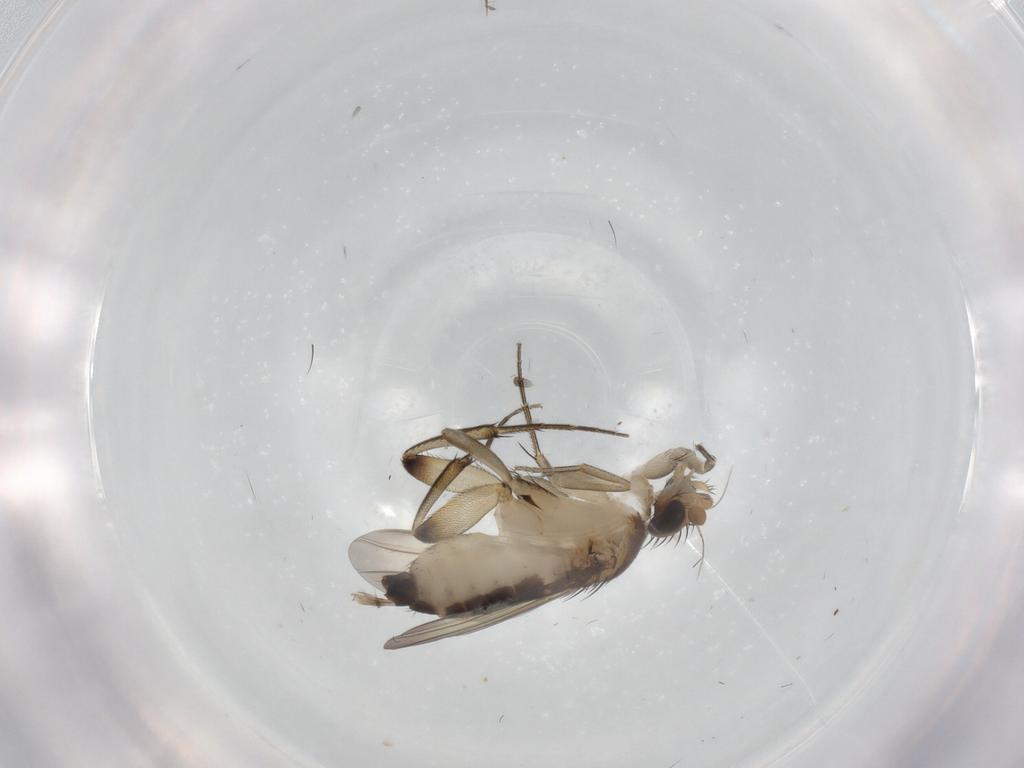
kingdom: Animalia
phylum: Arthropoda
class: Insecta
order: Diptera
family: Phoridae
